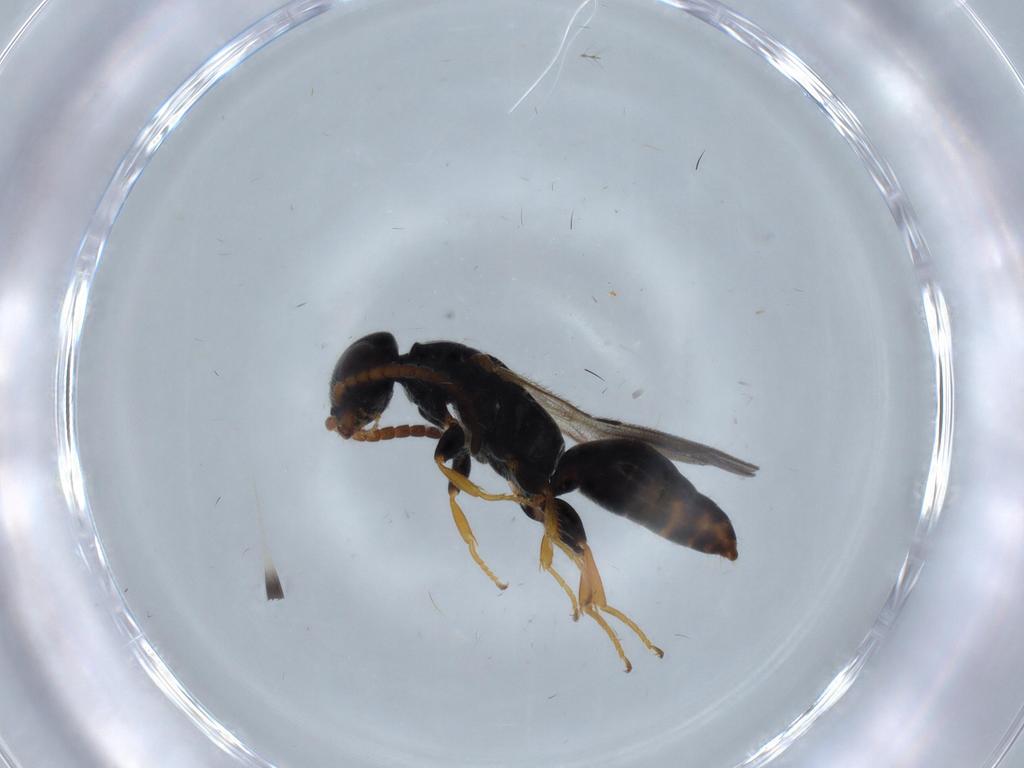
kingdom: Animalia
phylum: Arthropoda
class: Insecta
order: Hymenoptera
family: Bethylidae
